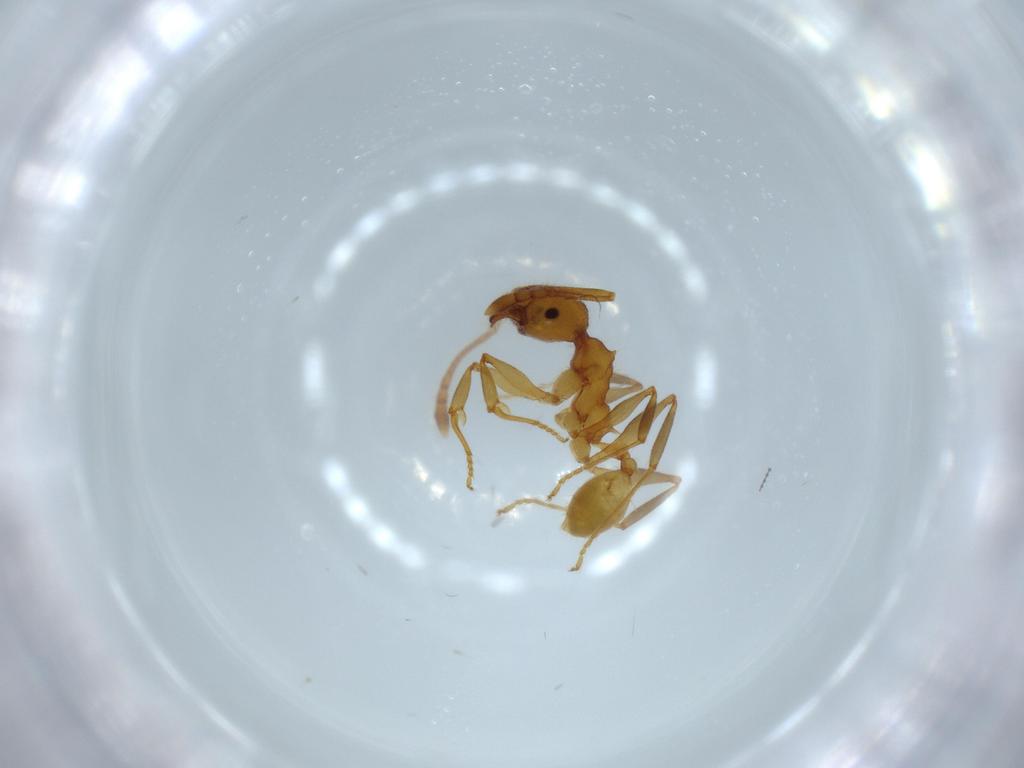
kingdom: Animalia
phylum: Arthropoda
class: Insecta
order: Hymenoptera
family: Formicidae
